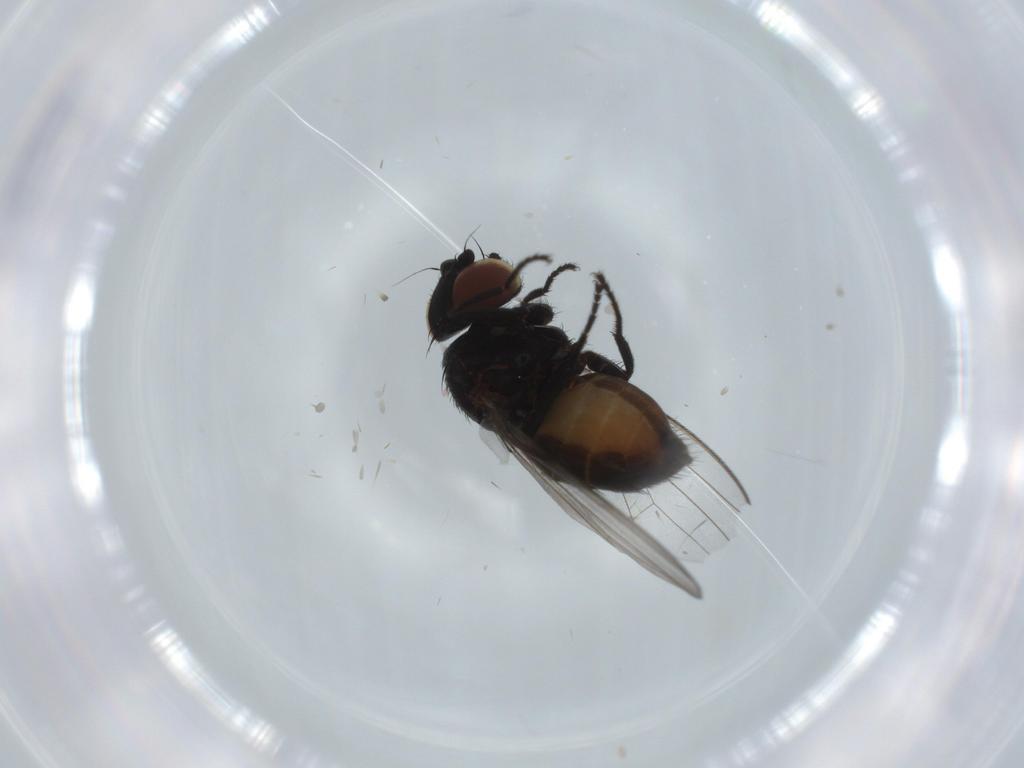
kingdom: Animalia
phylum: Arthropoda
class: Insecta
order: Diptera
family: Milichiidae
